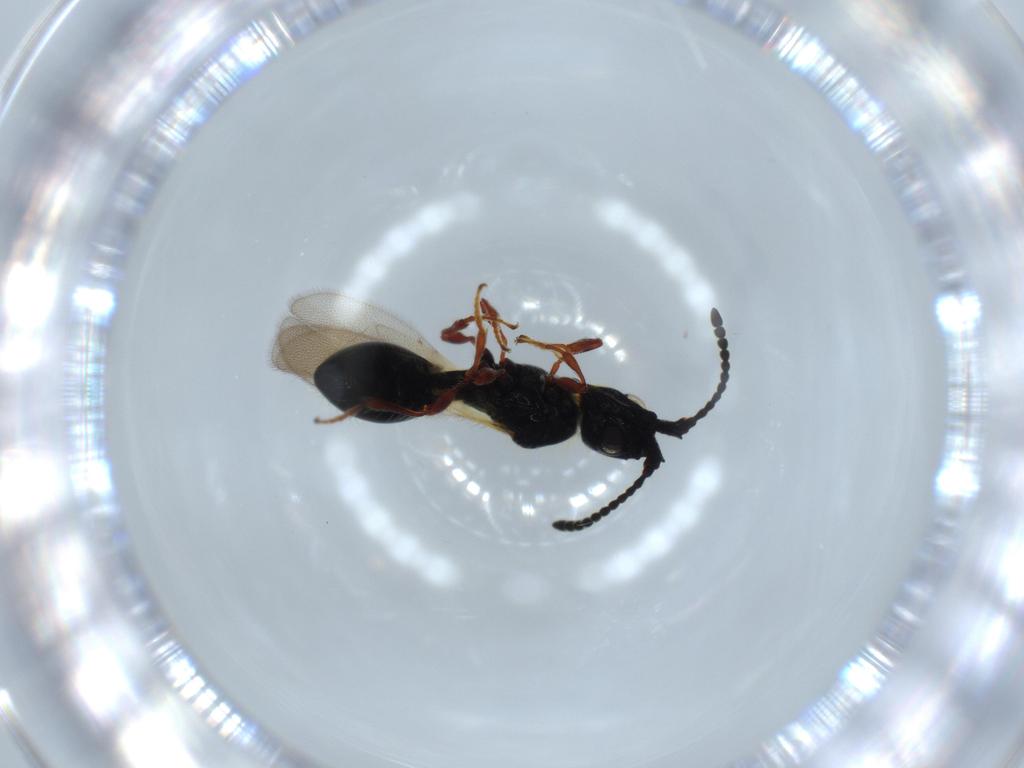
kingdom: Animalia
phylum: Arthropoda
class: Insecta
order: Hymenoptera
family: Diapriidae
